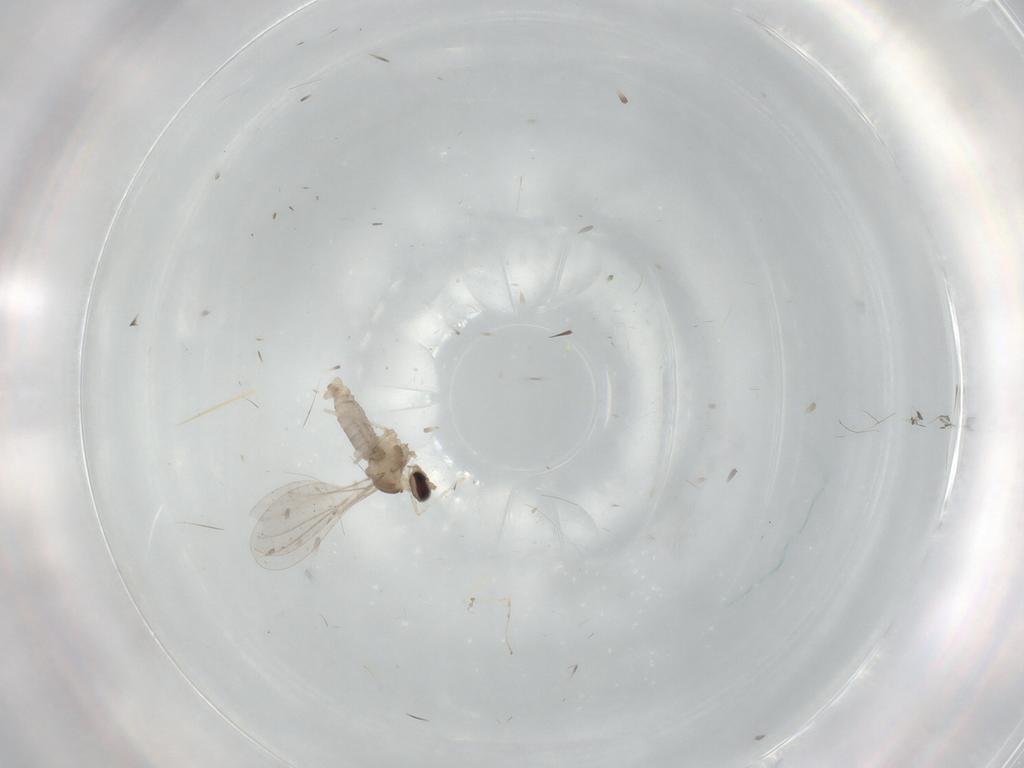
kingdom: Animalia
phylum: Arthropoda
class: Insecta
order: Diptera
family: Cecidomyiidae
